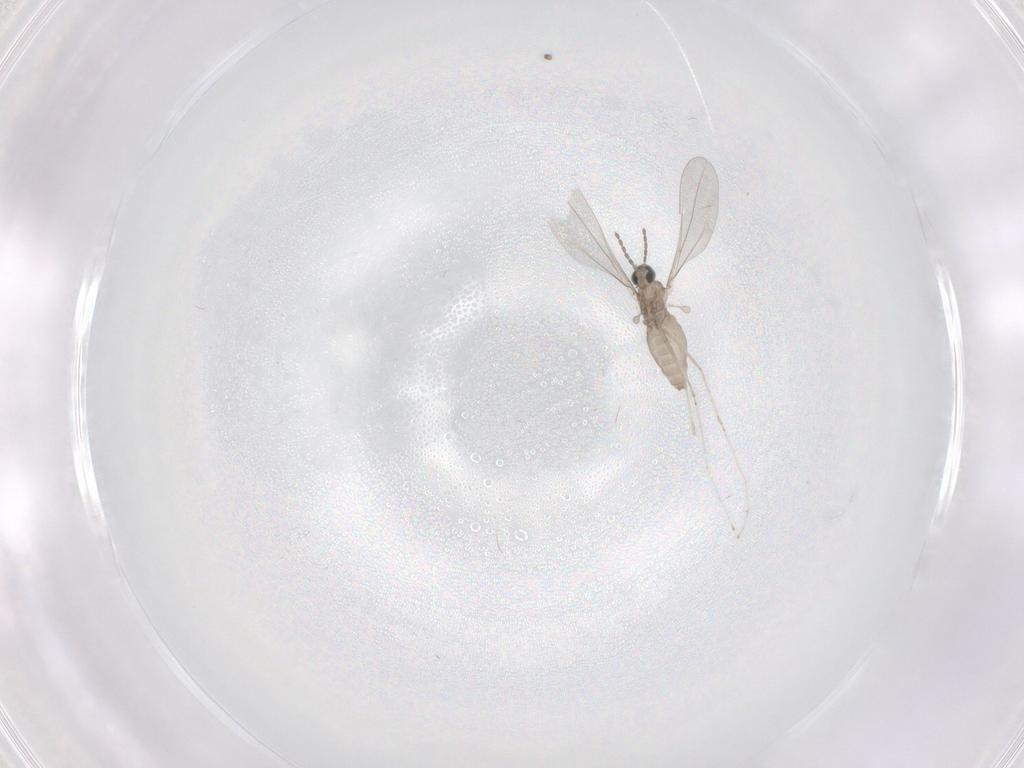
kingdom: Animalia
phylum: Arthropoda
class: Insecta
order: Diptera
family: Cecidomyiidae
